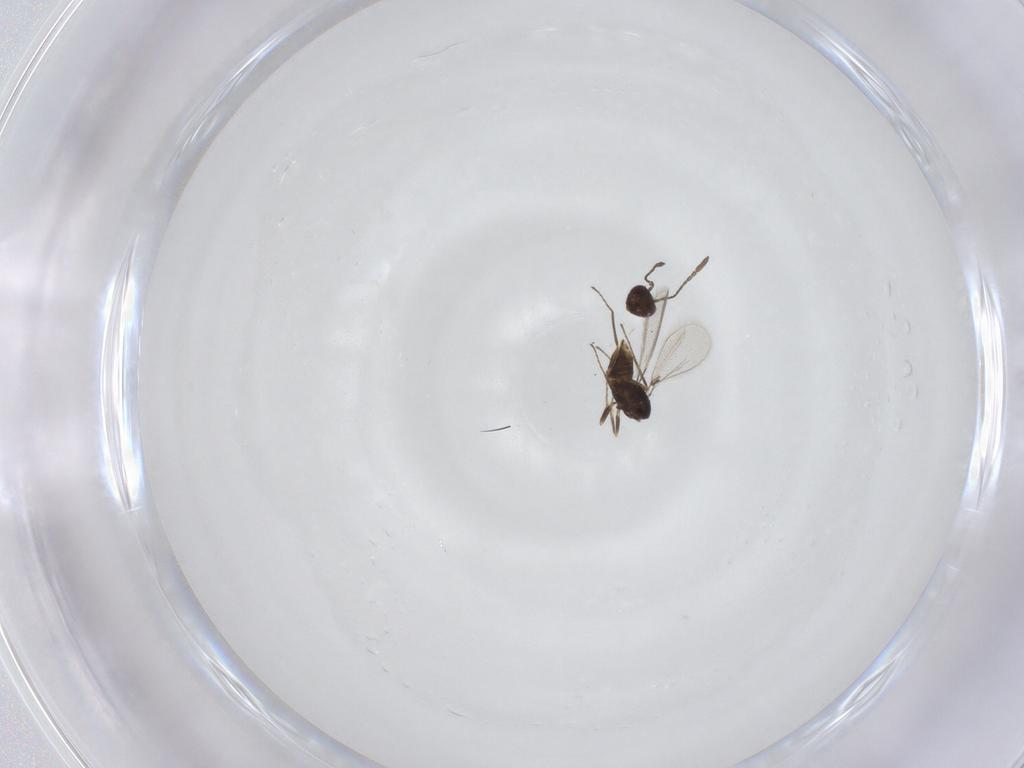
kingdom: Animalia
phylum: Arthropoda
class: Insecta
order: Hymenoptera
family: Mymaridae
